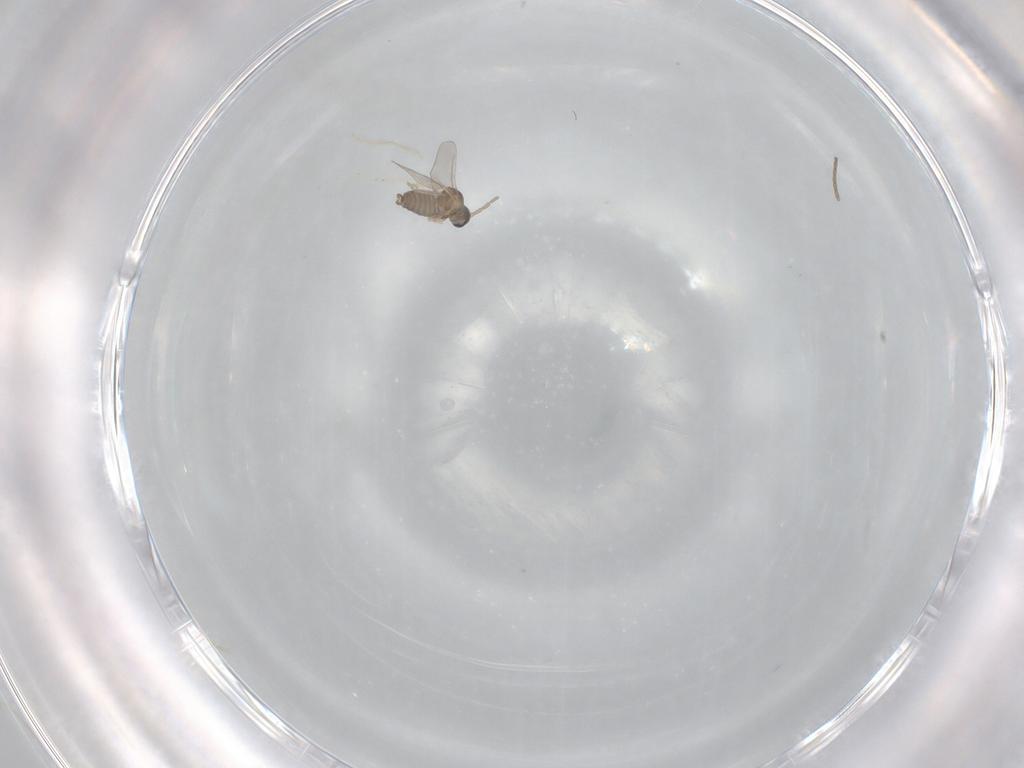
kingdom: Animalia
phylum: Arthropoda
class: Insecta
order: Diptera
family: Cecidomyiidae
